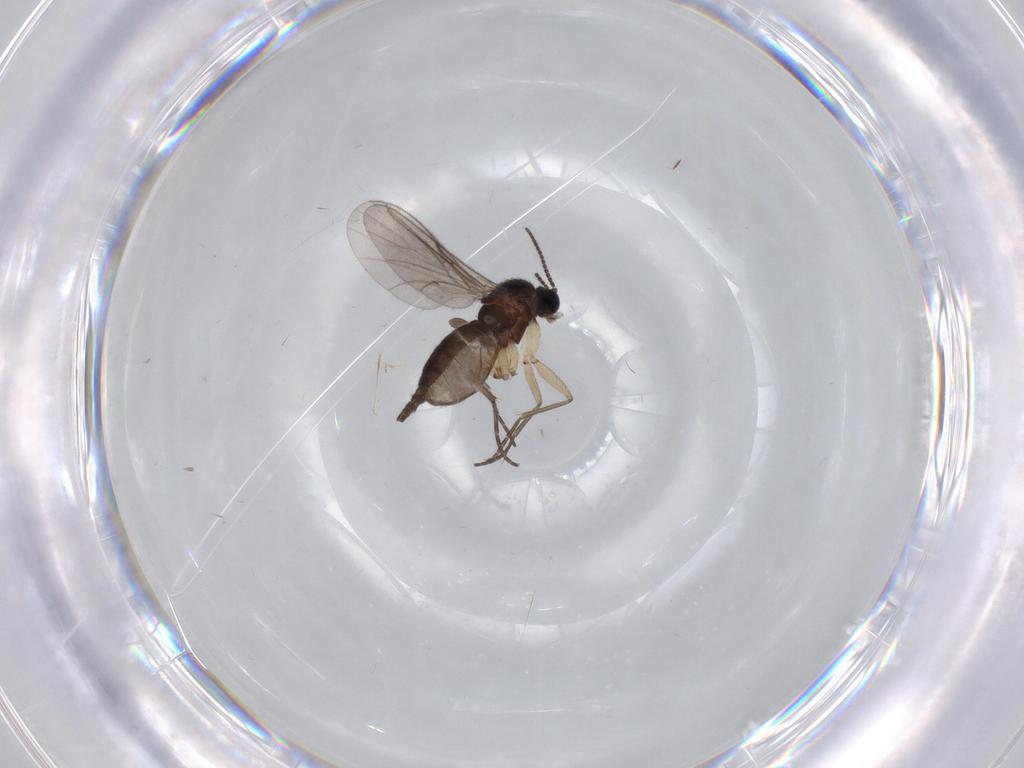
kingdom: Animalia
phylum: Arthropoda
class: Insecta
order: Diptera
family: Sciaridae
